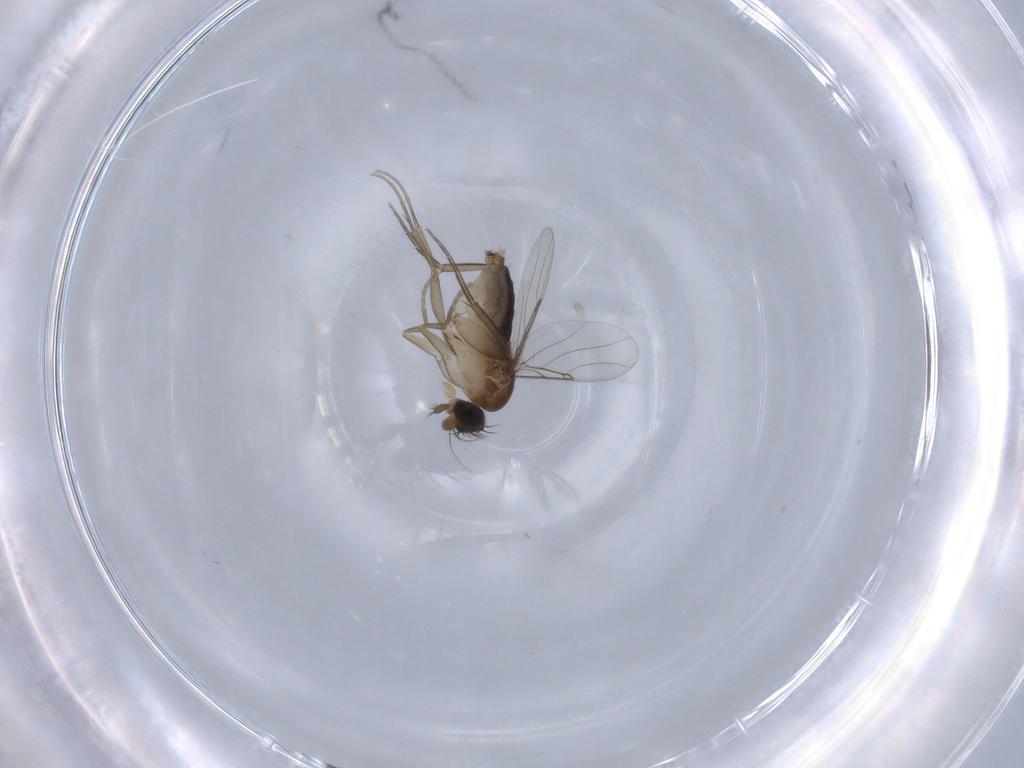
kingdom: Animalia
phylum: Arthropoda
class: Insecta
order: Diptera
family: Phoridae
